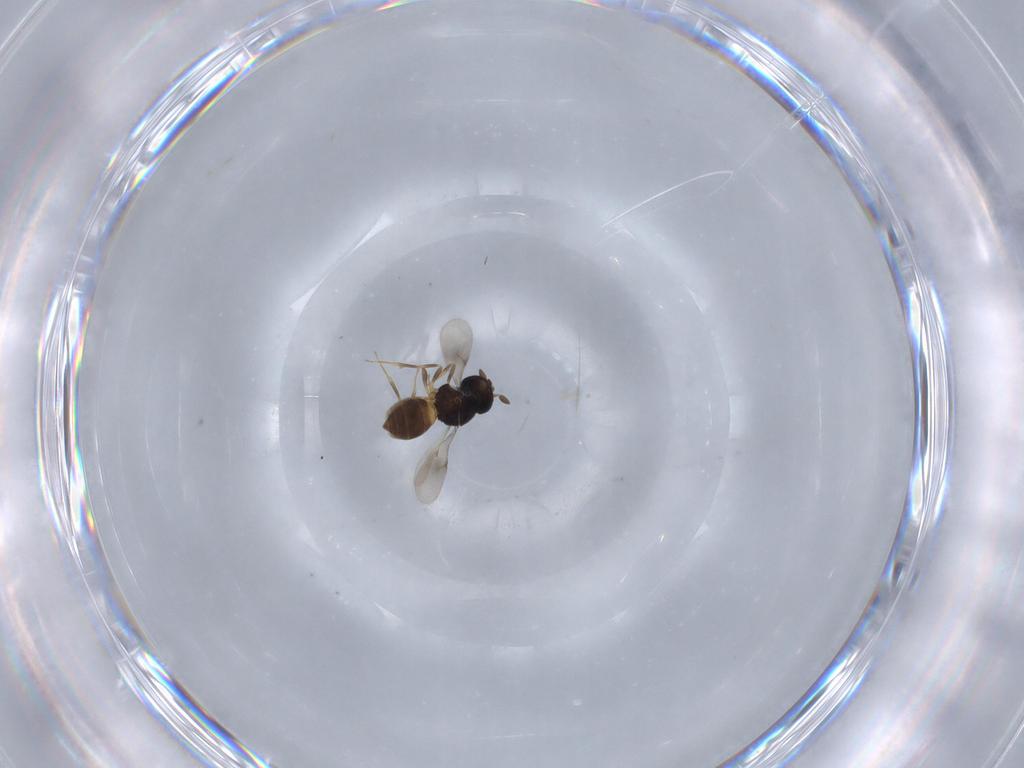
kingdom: Animalia
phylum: Arthropoda
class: Insecta
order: Hymenoptera
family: Scelionidae
